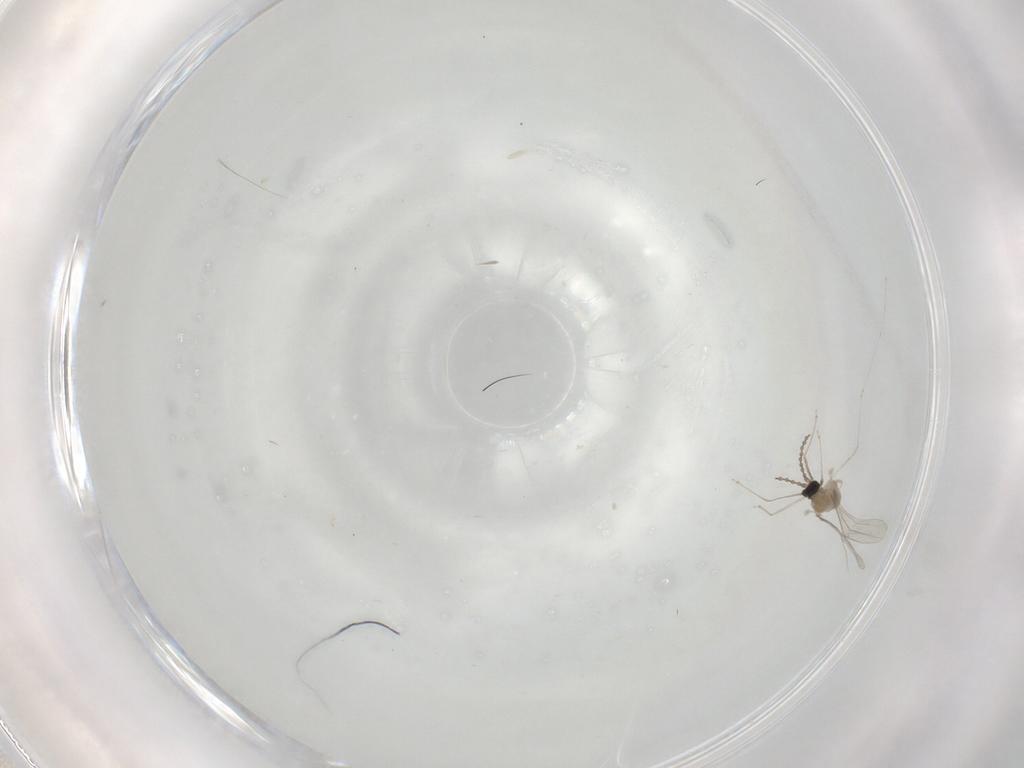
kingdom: Animalia
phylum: Arthropoda
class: Insecta
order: Diptera
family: Cecidomyiidae
